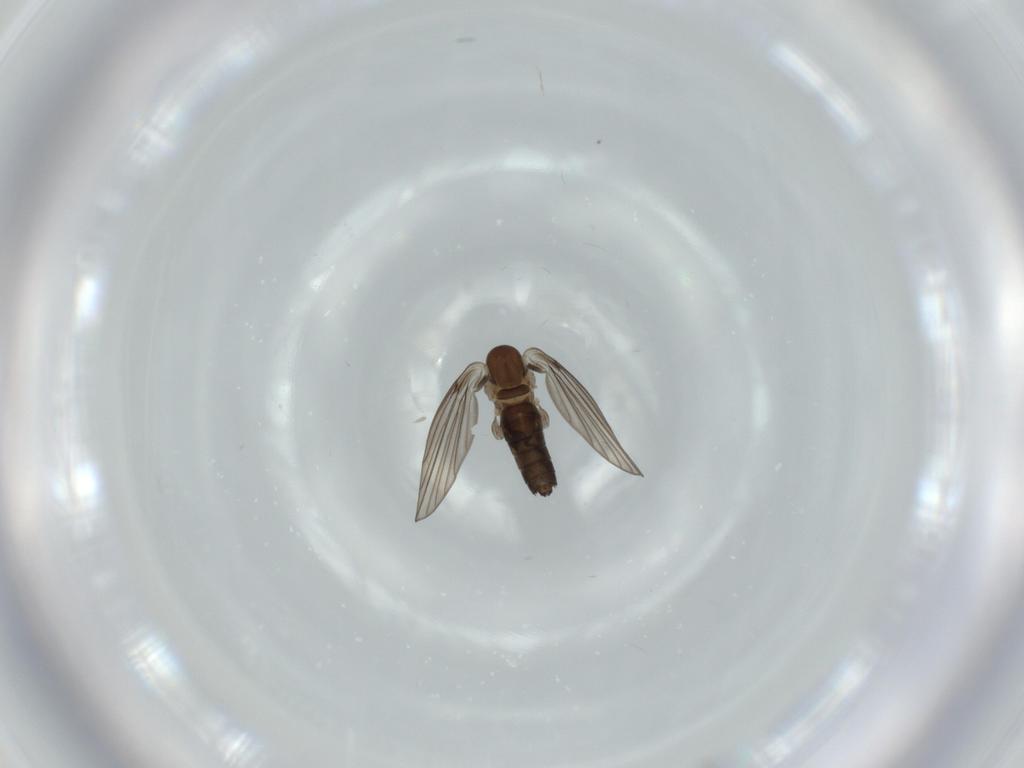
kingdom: Animalia
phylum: Arthropoda
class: Insecta
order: Diptera
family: Psychodidae
